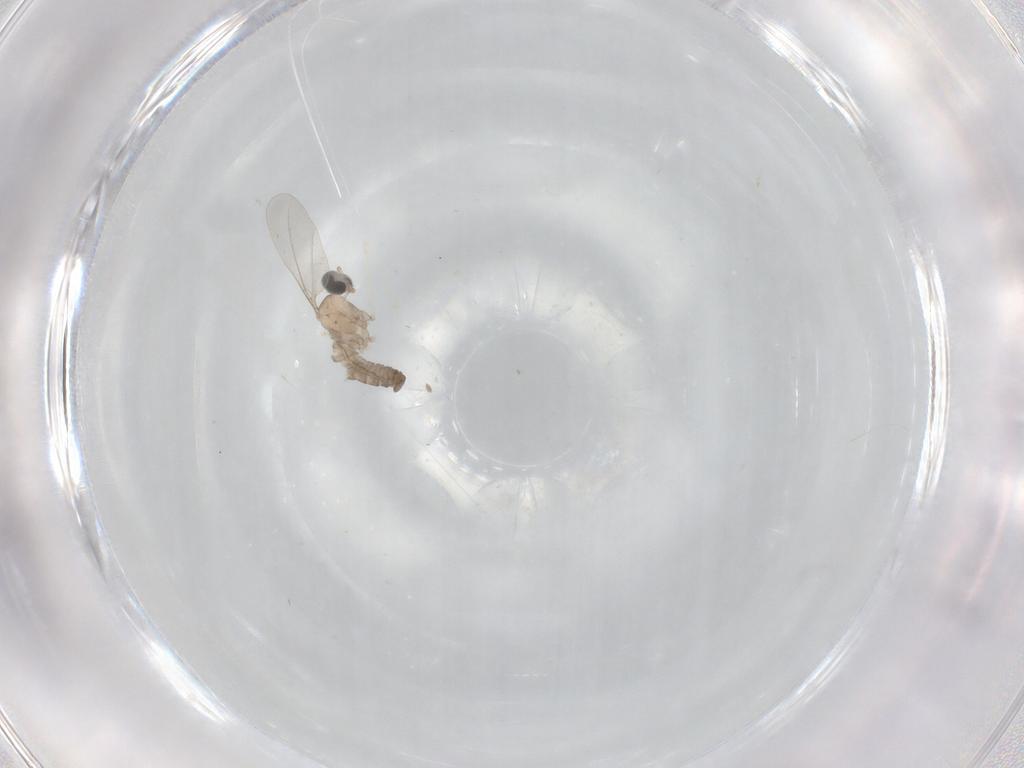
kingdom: Animalia
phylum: Arthropoda
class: Insecta
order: Diptera
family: Cecidomyiidae
